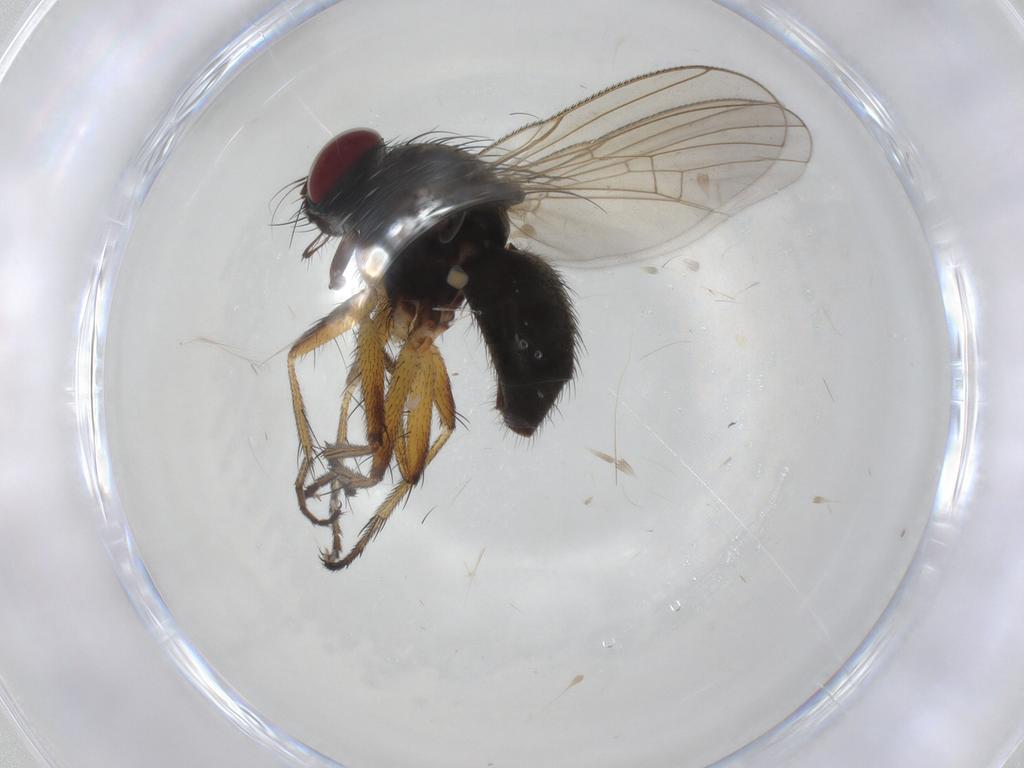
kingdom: Animalia
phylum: Arthropoda
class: Insecta
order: Diptera
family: Muscidae
